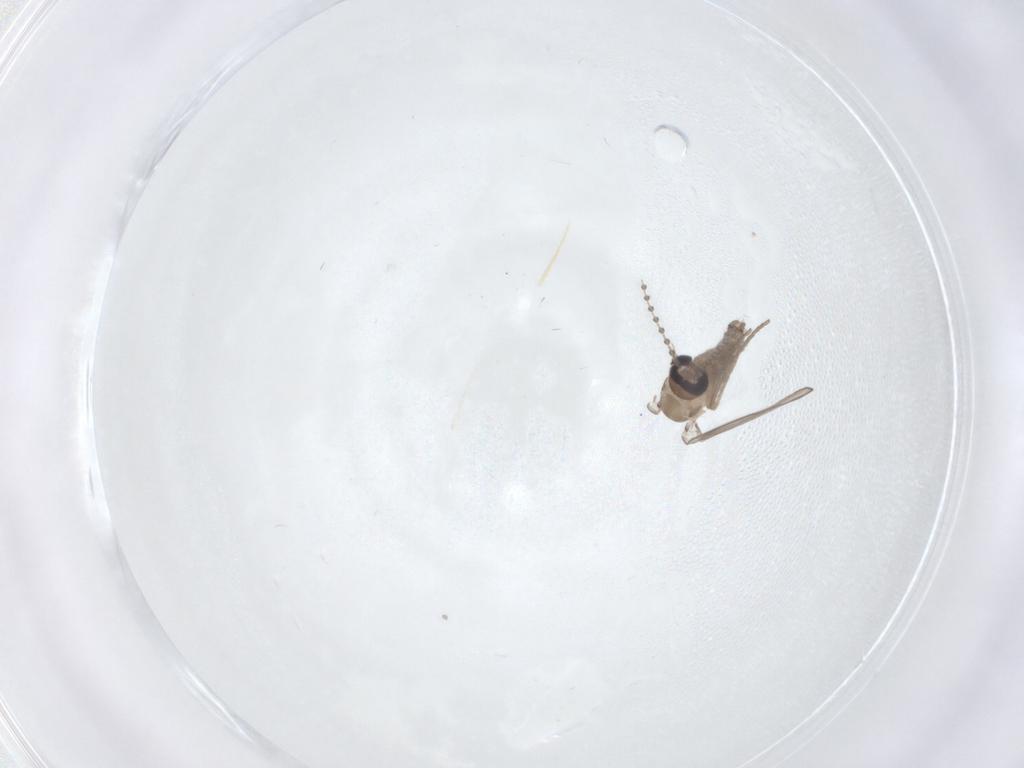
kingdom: Animalia
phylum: Arthropoda
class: Insecta
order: Diptera
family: Psychodidae
